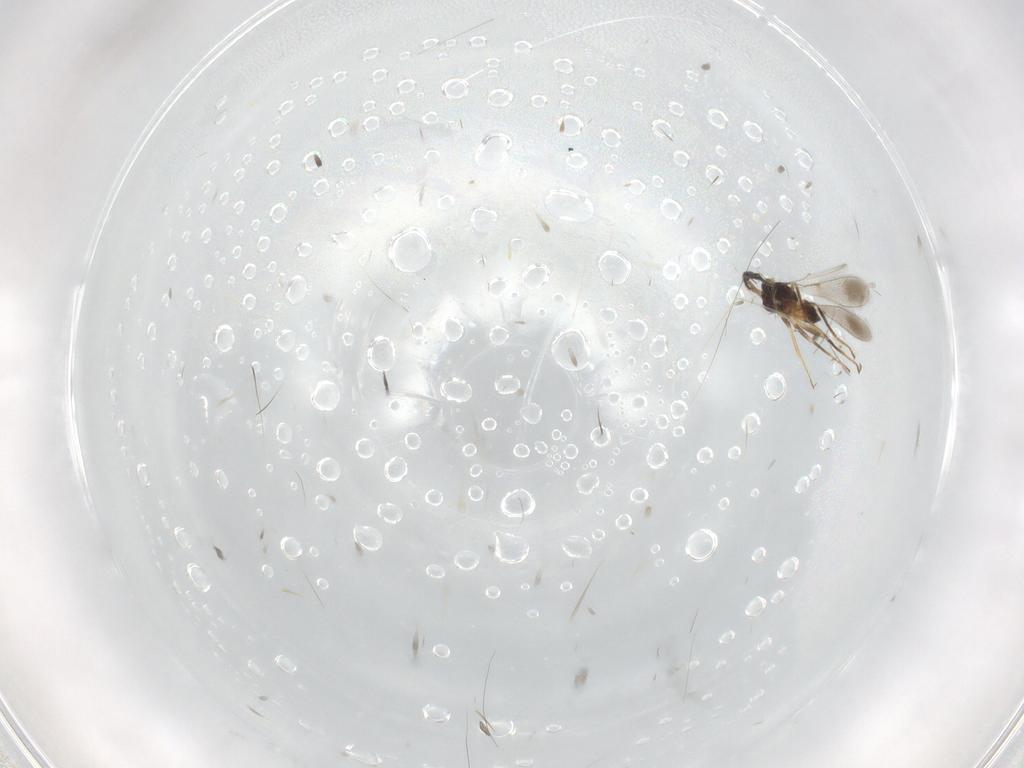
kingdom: Animalia
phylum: Arthropoda
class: Insecta
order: Hymenoptera
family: Mymaridae
